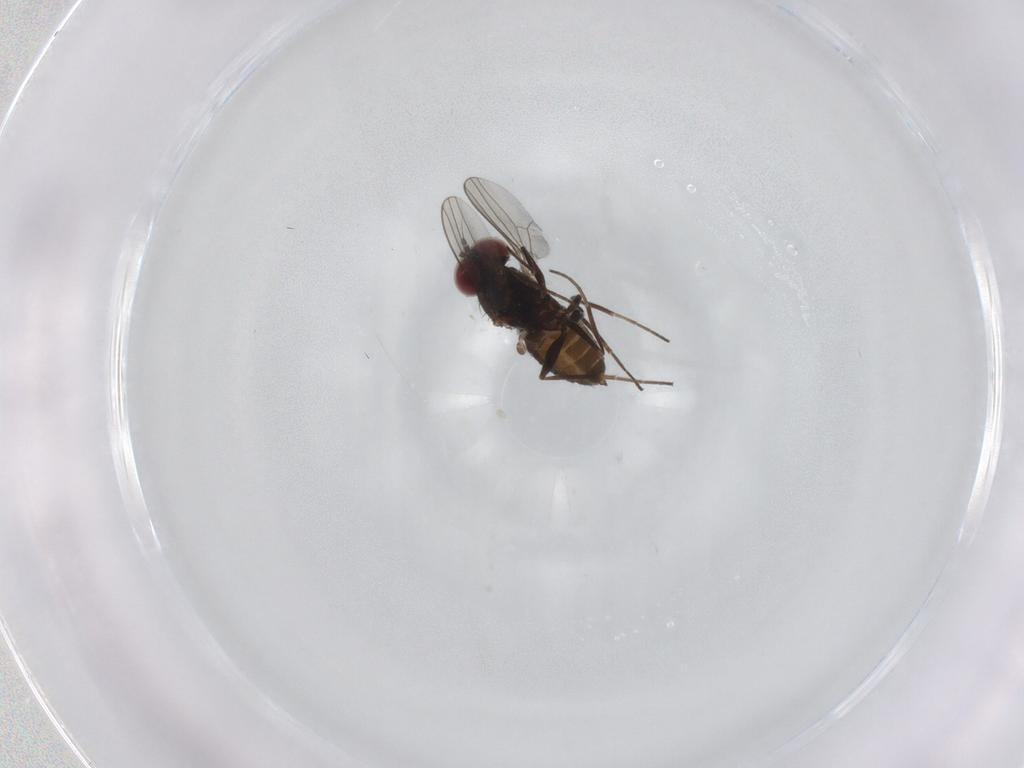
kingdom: Animalia
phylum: Arthropoda
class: Insecta
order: Diptera
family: Dolichopodidae
